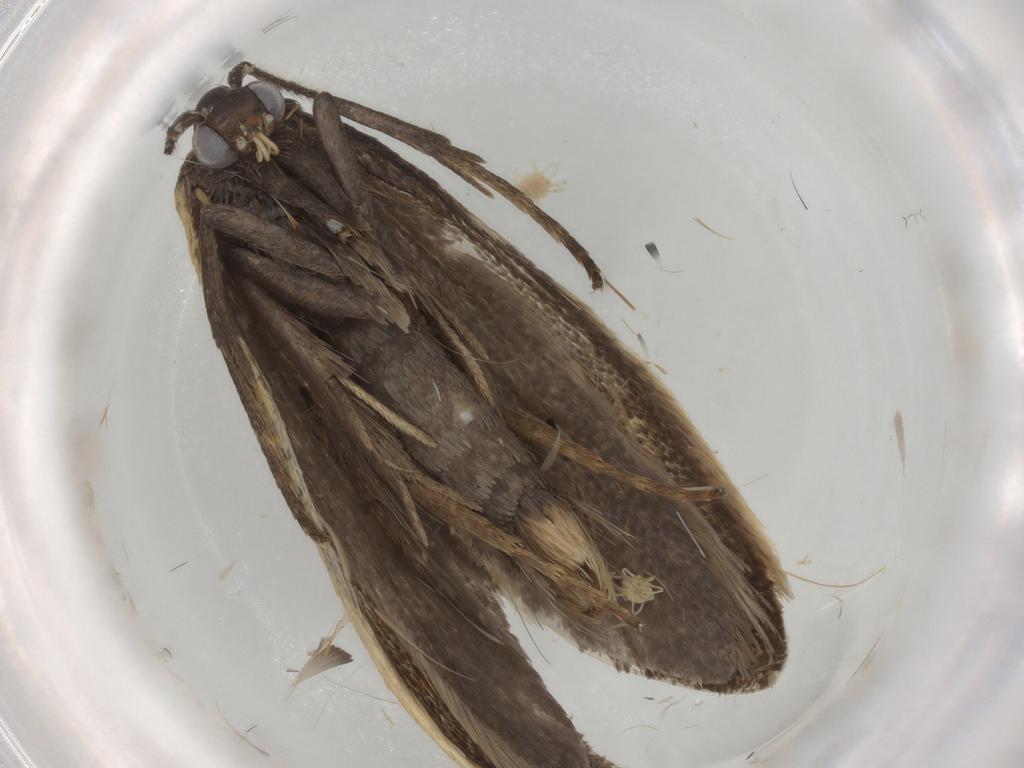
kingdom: Animalia
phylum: Arthropoda
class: Insecta
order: Lepidoptera
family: Crambidae
